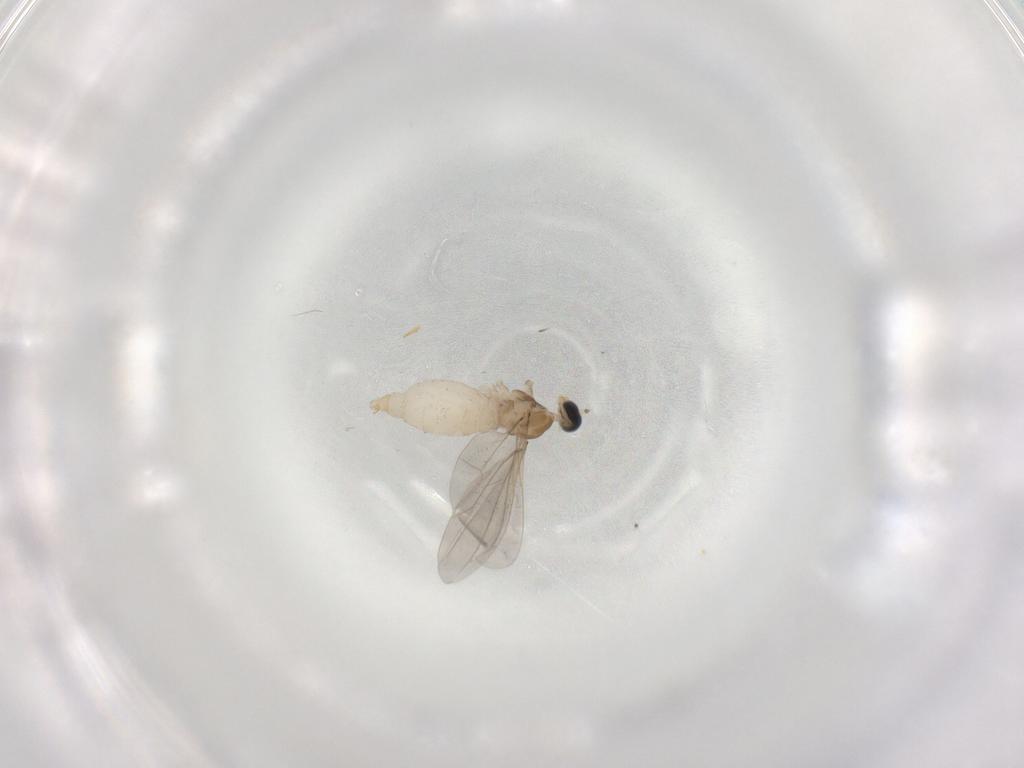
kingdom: Animalia
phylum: Arthropoda
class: Insecta
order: Diptera
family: Cecidomyiidae
